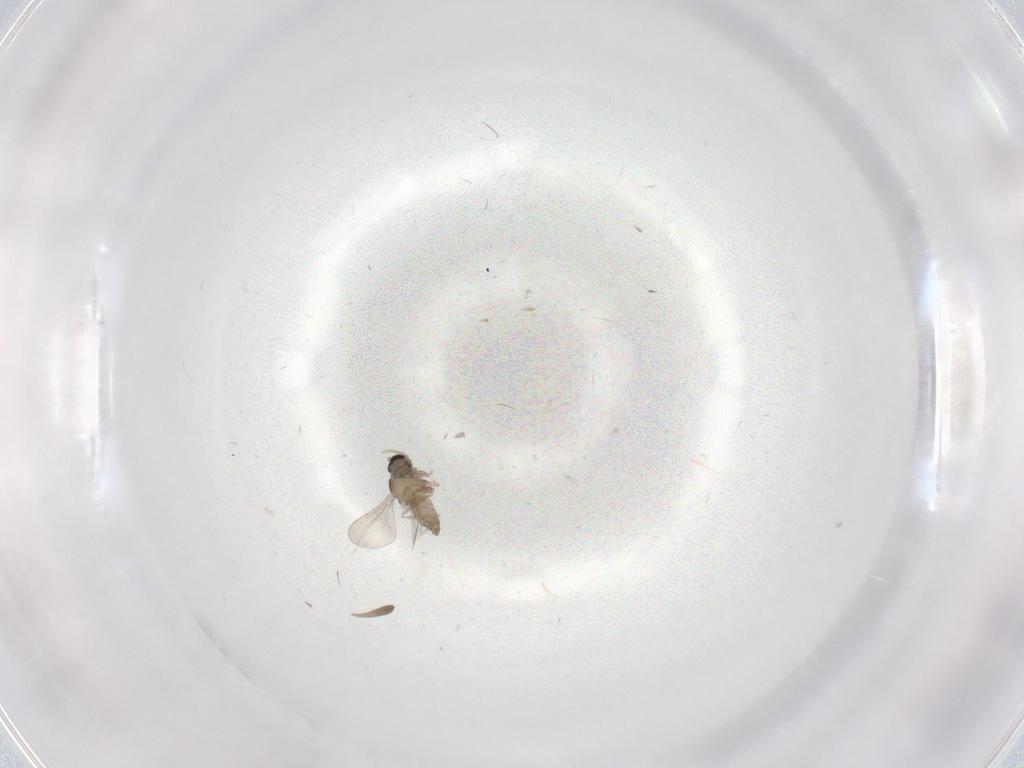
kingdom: Animalia
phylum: Arthropoda
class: Insecta
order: Diptera
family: Cecidomyiidae
